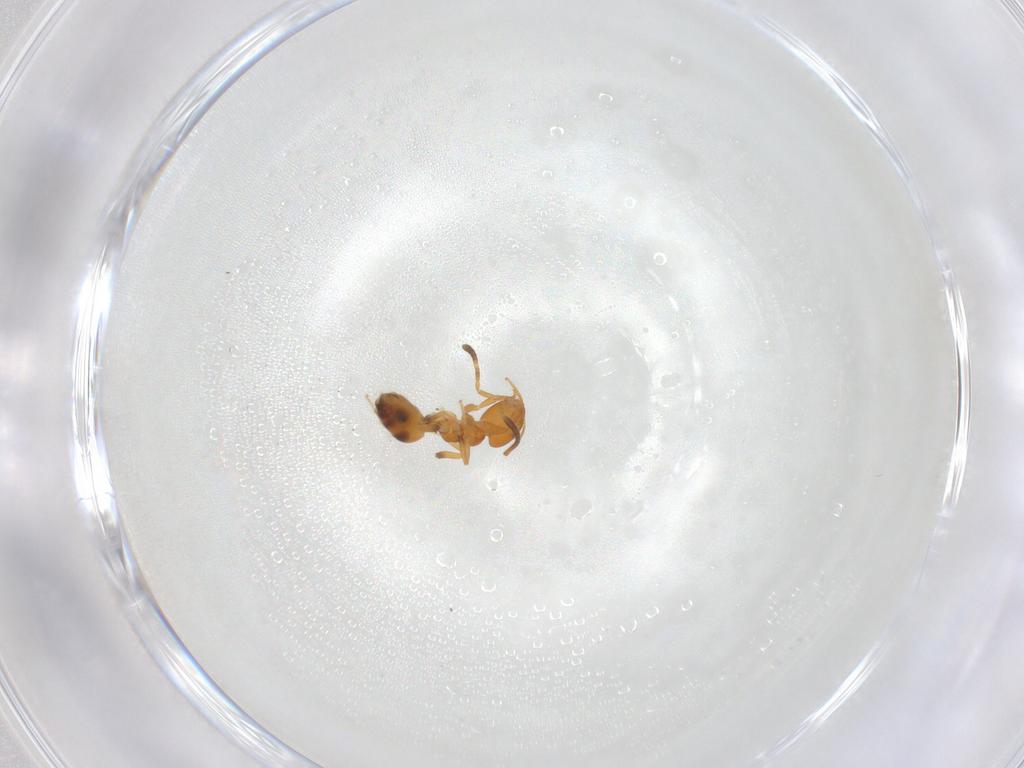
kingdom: Animalia
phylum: Arthropoda
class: Insecta
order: Hymenoptera
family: Formicidae
